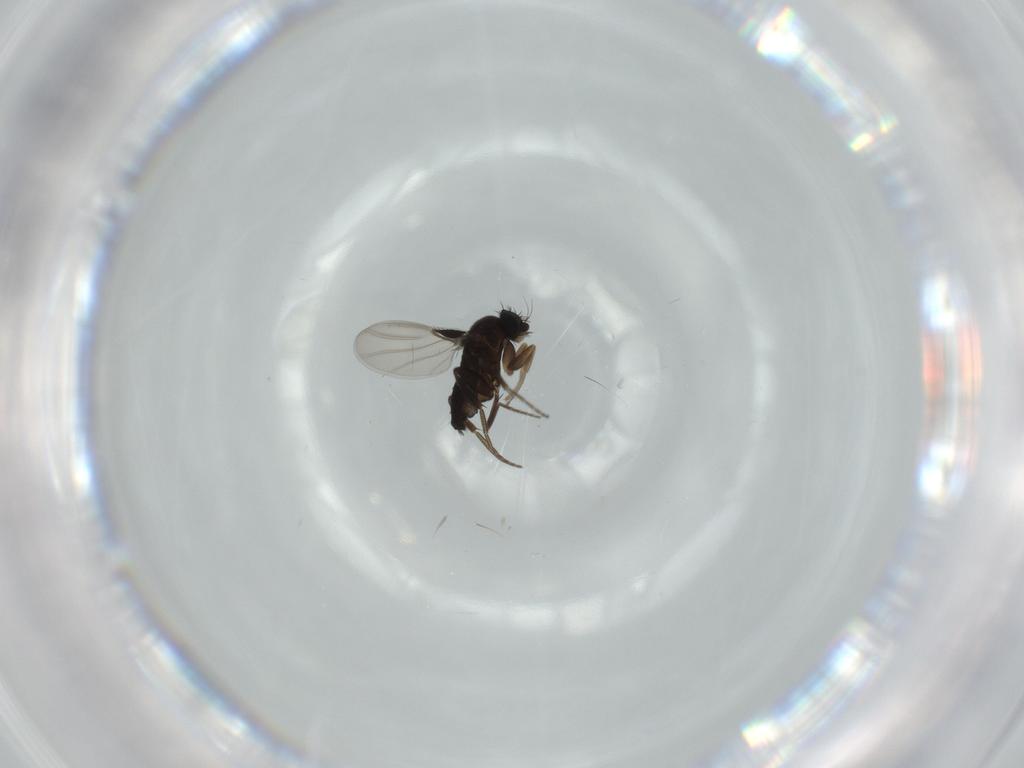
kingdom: Animalia
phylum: Arthropoda
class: Insecta
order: Diptera
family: Phoridae
